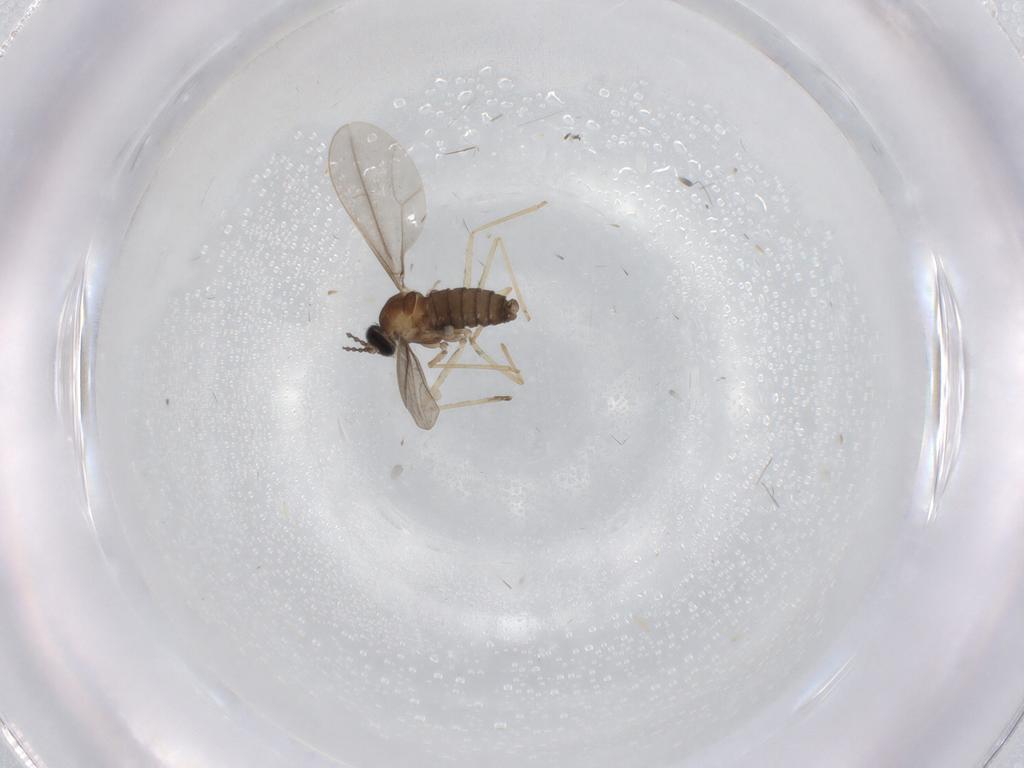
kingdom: Animalia
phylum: Arthropoda
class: Insecta
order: Diptera
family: Cecidomyiidae
